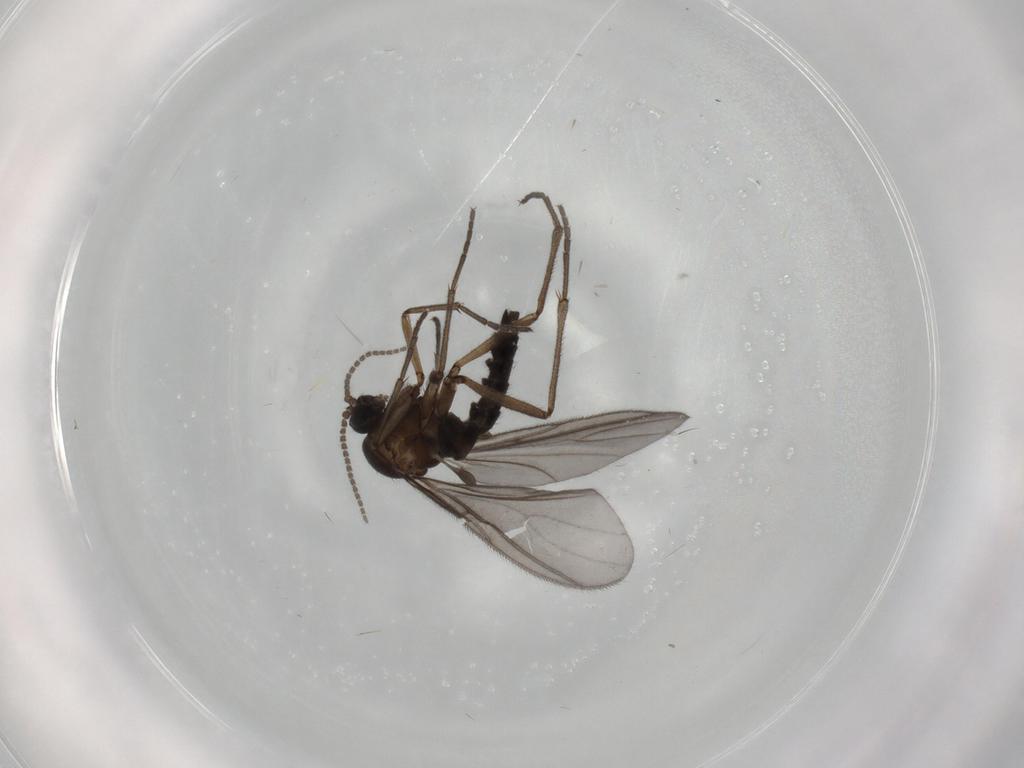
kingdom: Animalia
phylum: Arthropoda
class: Insecta
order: Diptera
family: Sciaridae
